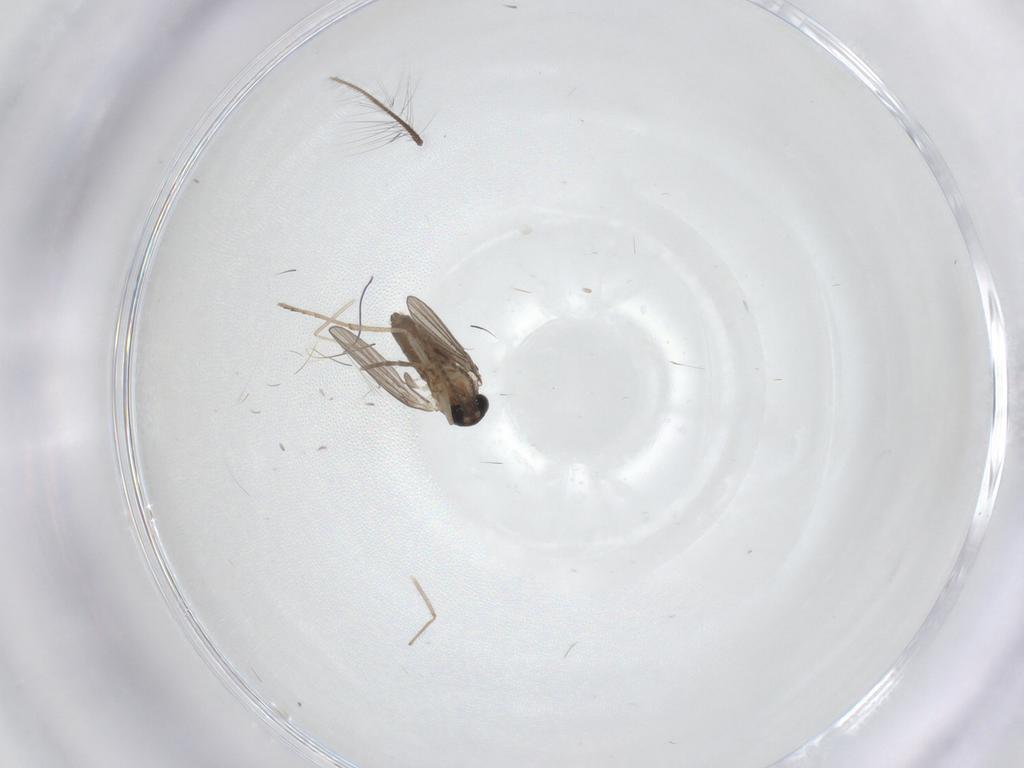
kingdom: Animalia
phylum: Arthropoda
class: Insecta
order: Diptera
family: Chironomidae
